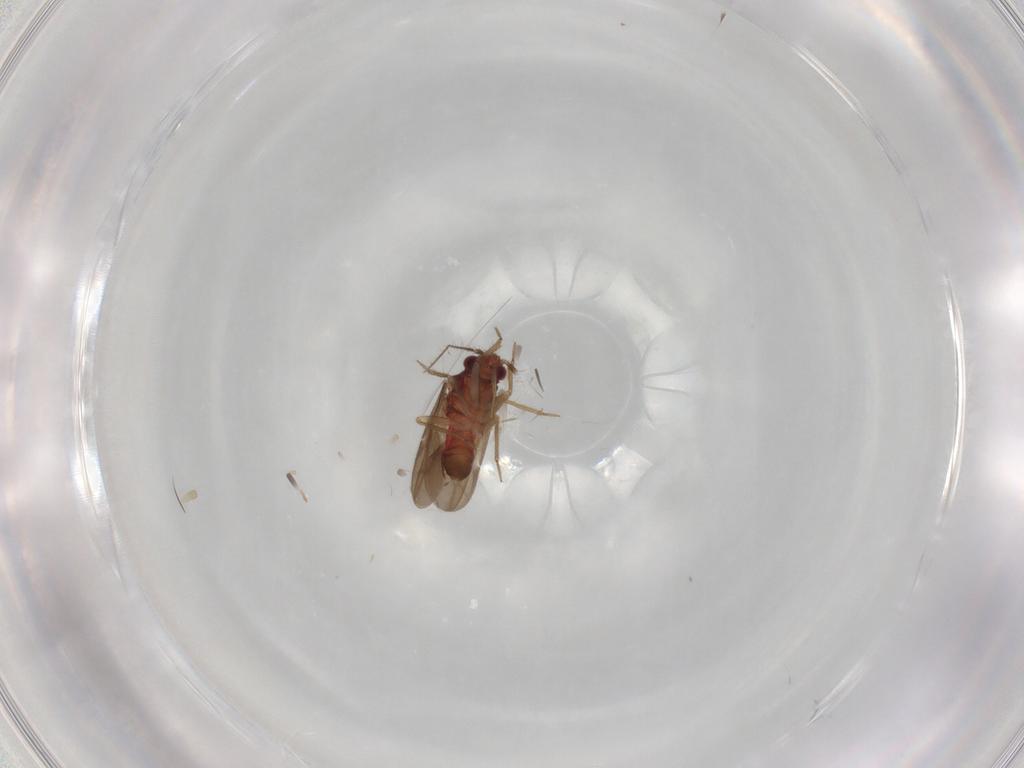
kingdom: Animalia
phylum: Arthropoda
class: Insecta
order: Hemiptera
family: Ceratocombidae
